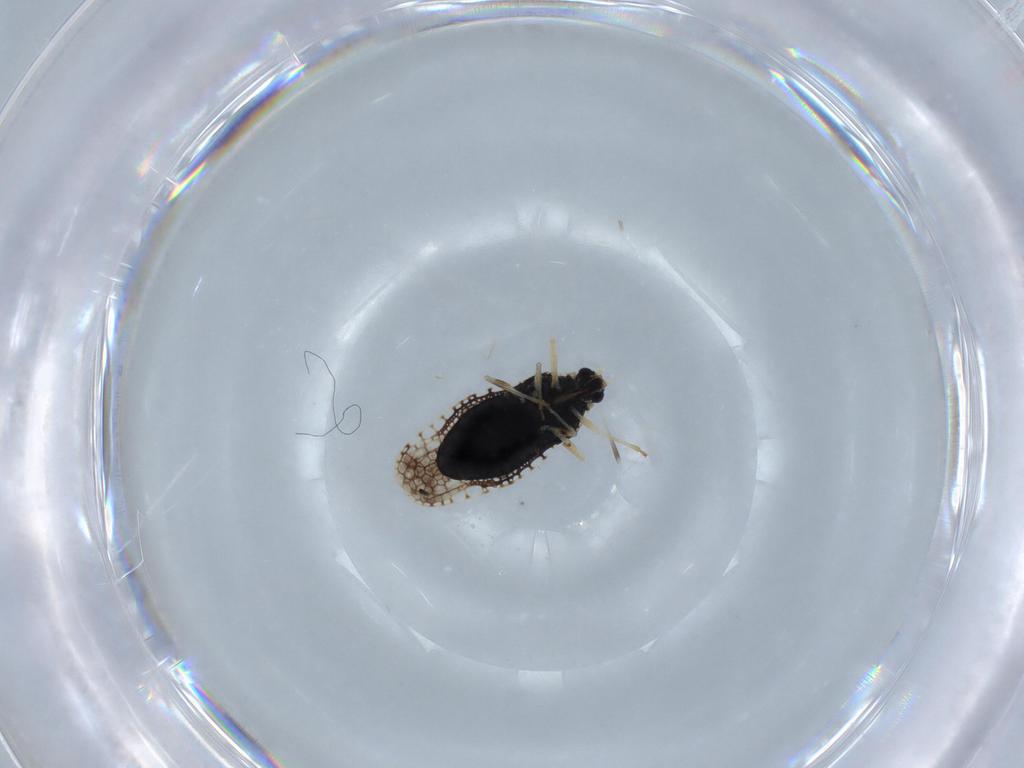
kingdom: Animalia
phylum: Arthropoda
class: Insecta
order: Hemiptera
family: Tingidae
